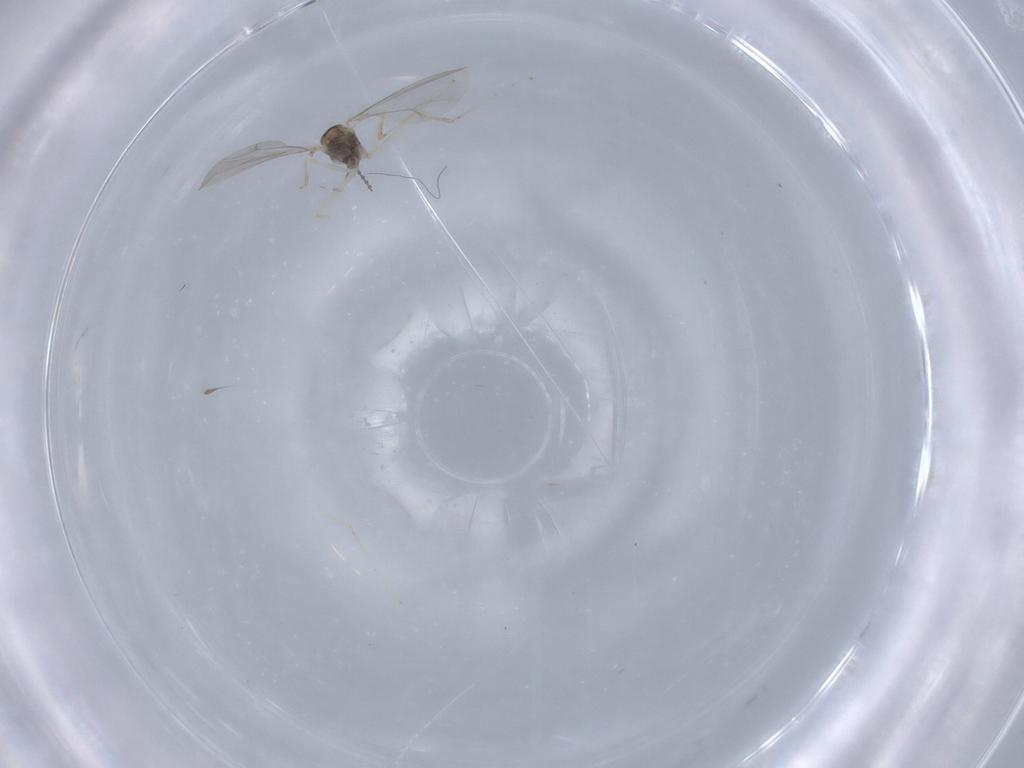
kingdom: Animalia
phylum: Arthropoda
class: Insecta
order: Diptera
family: Cecidomyiidae
